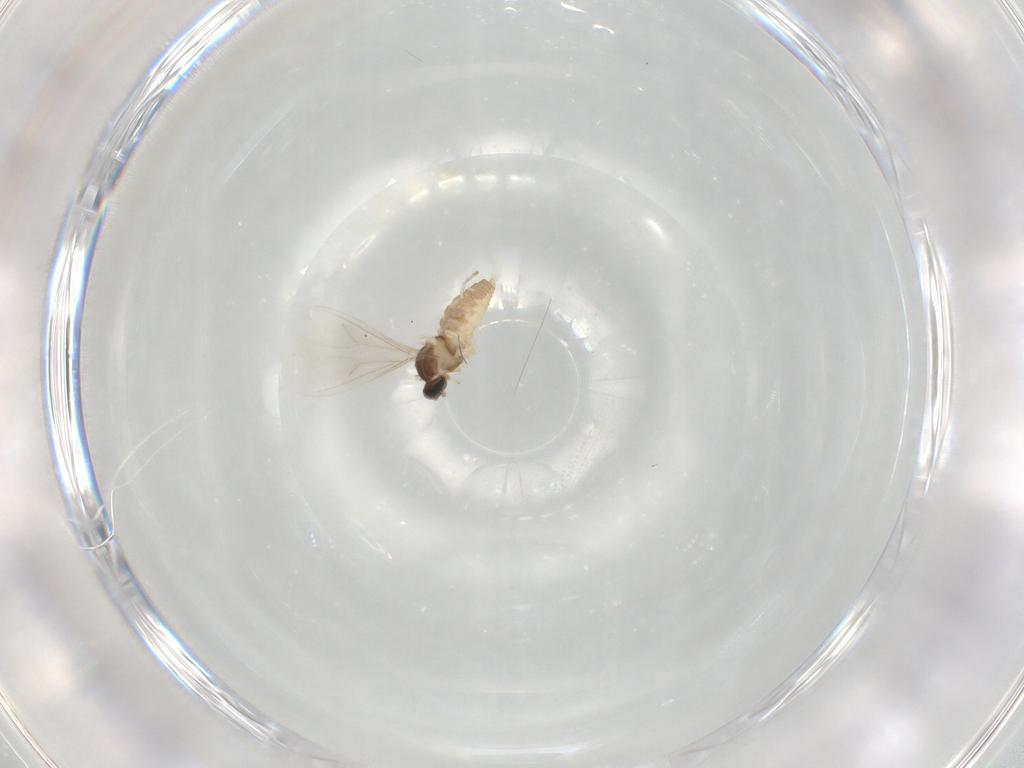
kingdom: Animalia
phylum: Arthropoda
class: Insecta
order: Diptera
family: Cecidomyiidae
